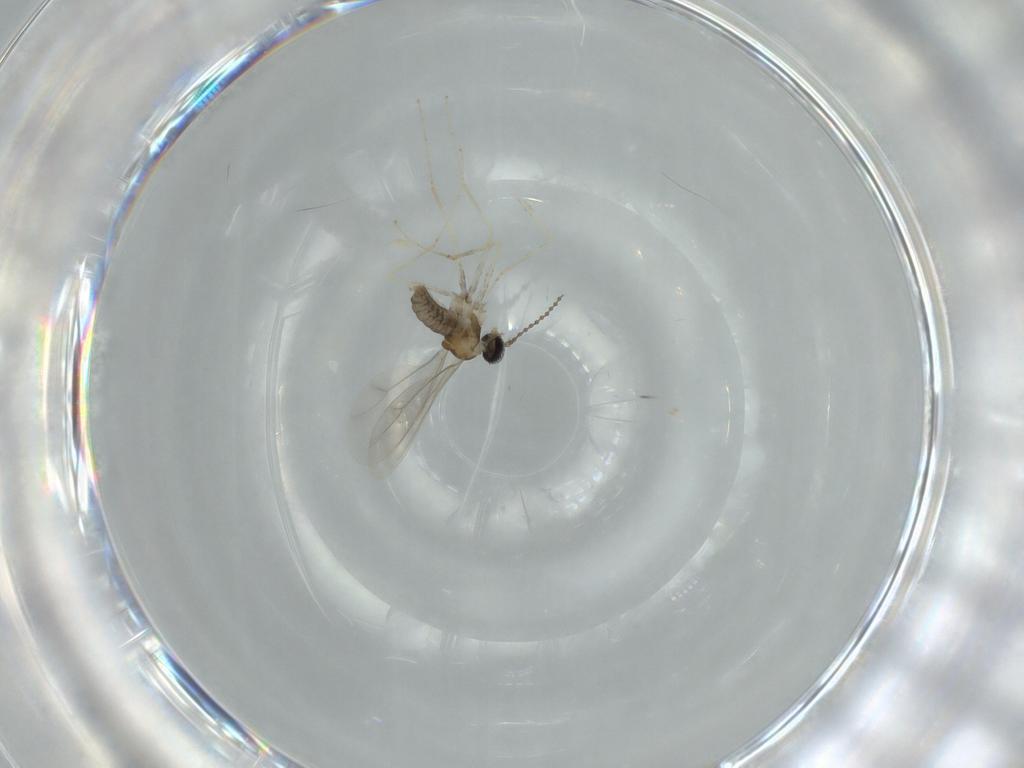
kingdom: Animalia
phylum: Arthropoda
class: Insecta
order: Diptera
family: Cecidomyiidae
